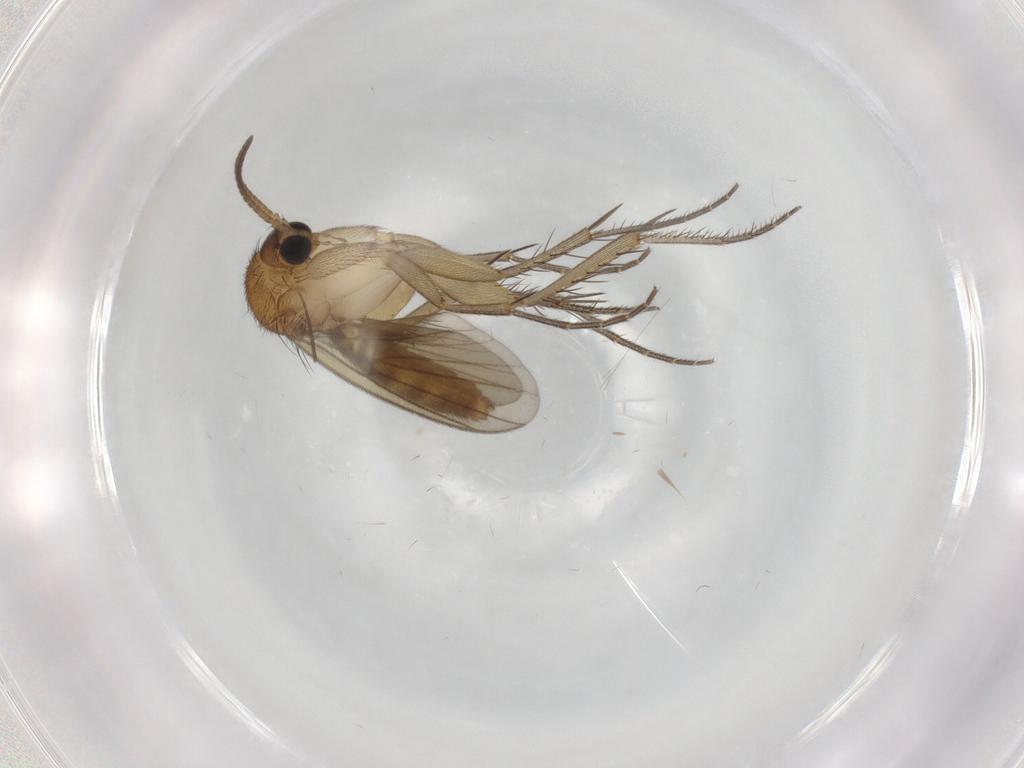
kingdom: Animalia
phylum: Arthropoda
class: Insecta
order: Diptera
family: Mycetophilidae
